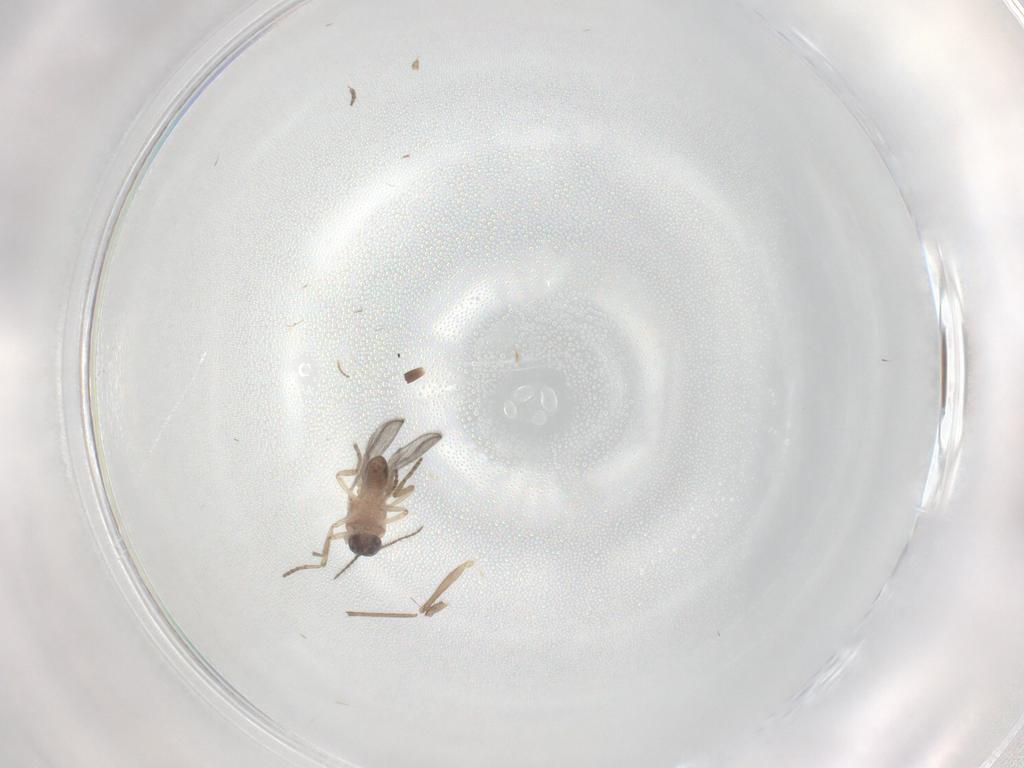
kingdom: Animalia
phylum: Arthropoda
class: Insecta
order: Diptera
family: Ceratopogonidae
